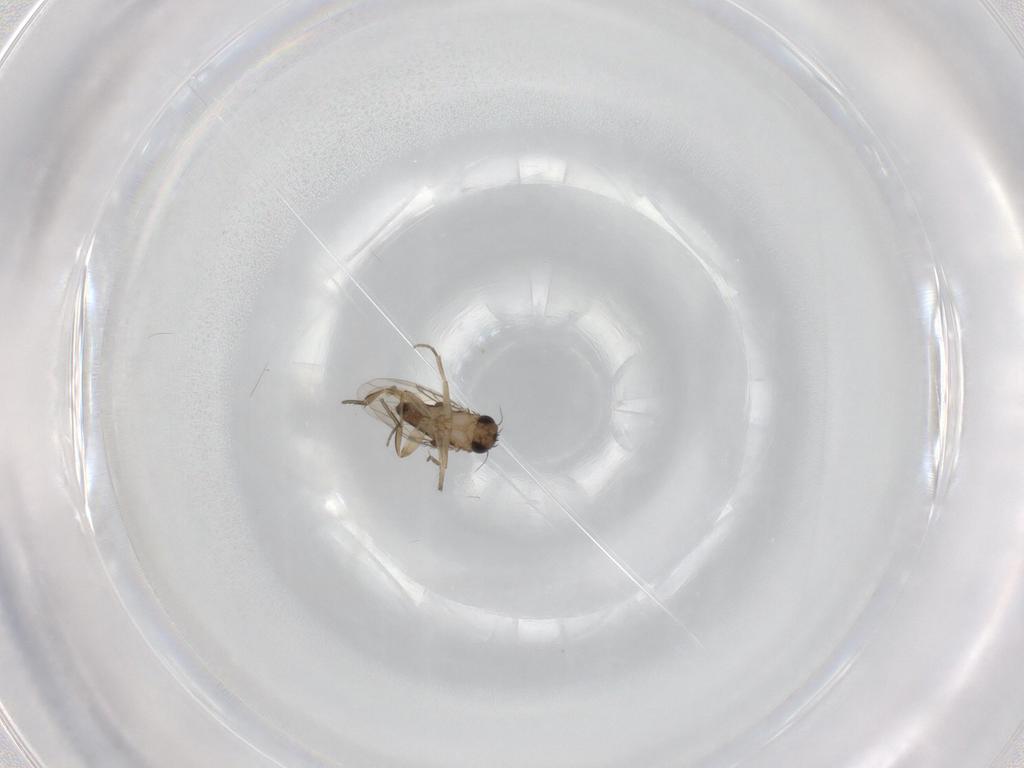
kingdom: Animalia
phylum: Arthropoda
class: Insecta
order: Diptera
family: Phoridae
